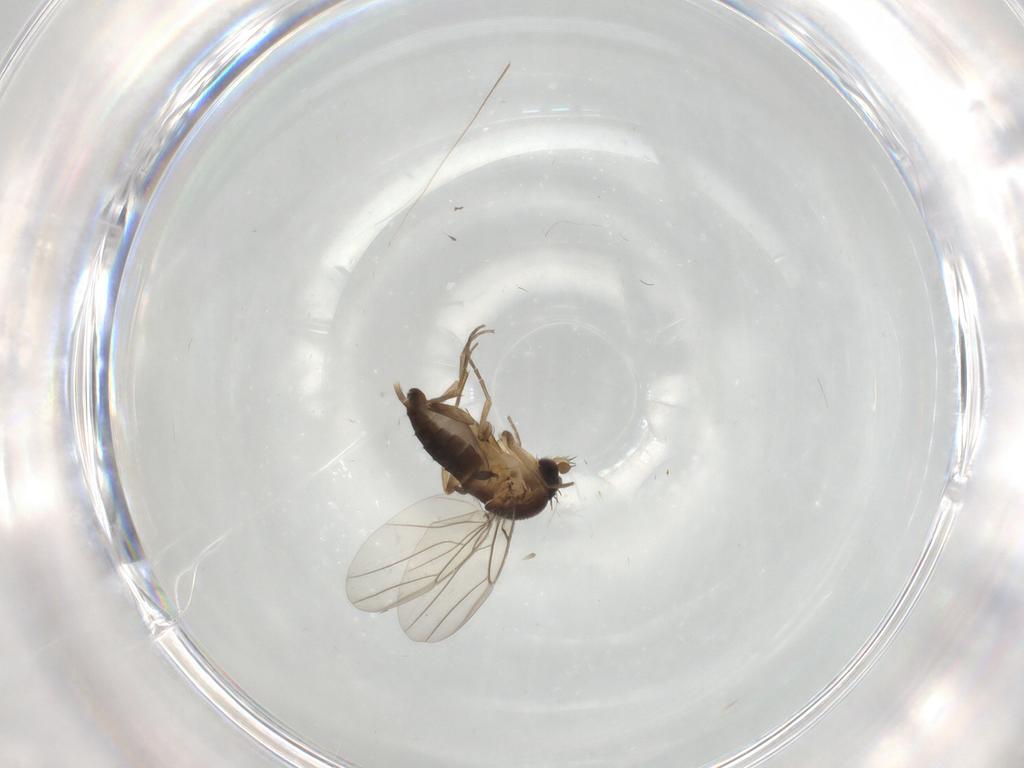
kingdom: Animalia
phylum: Arthropoda
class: Insecta
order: Diptera
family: Phoridae
